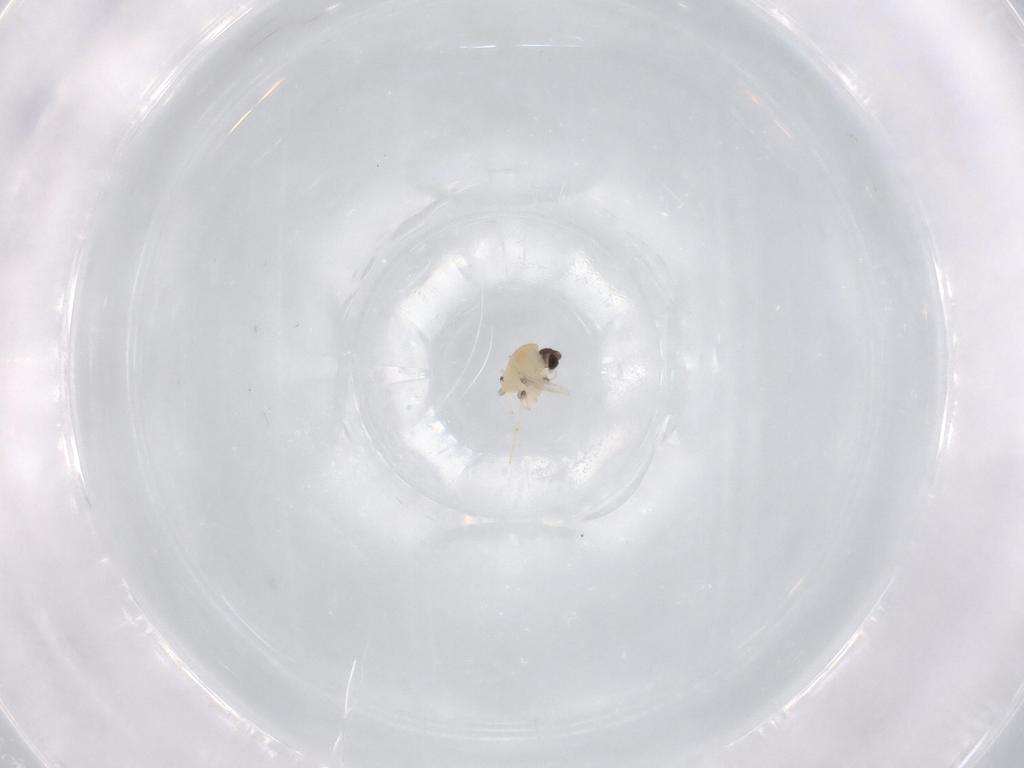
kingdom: Animalia
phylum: Arthropoda
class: Insecta
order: Diptera
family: Chironomidae
